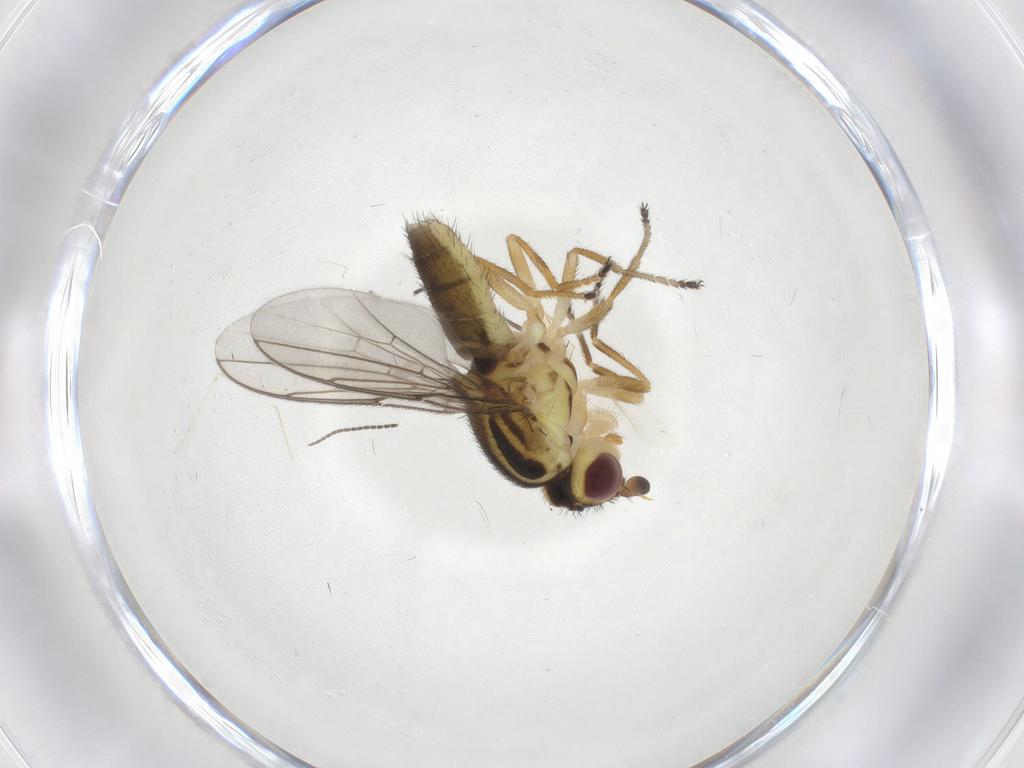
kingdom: Animalia
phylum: Arthropoda
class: Insecta
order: Diptera
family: Chloropidae
